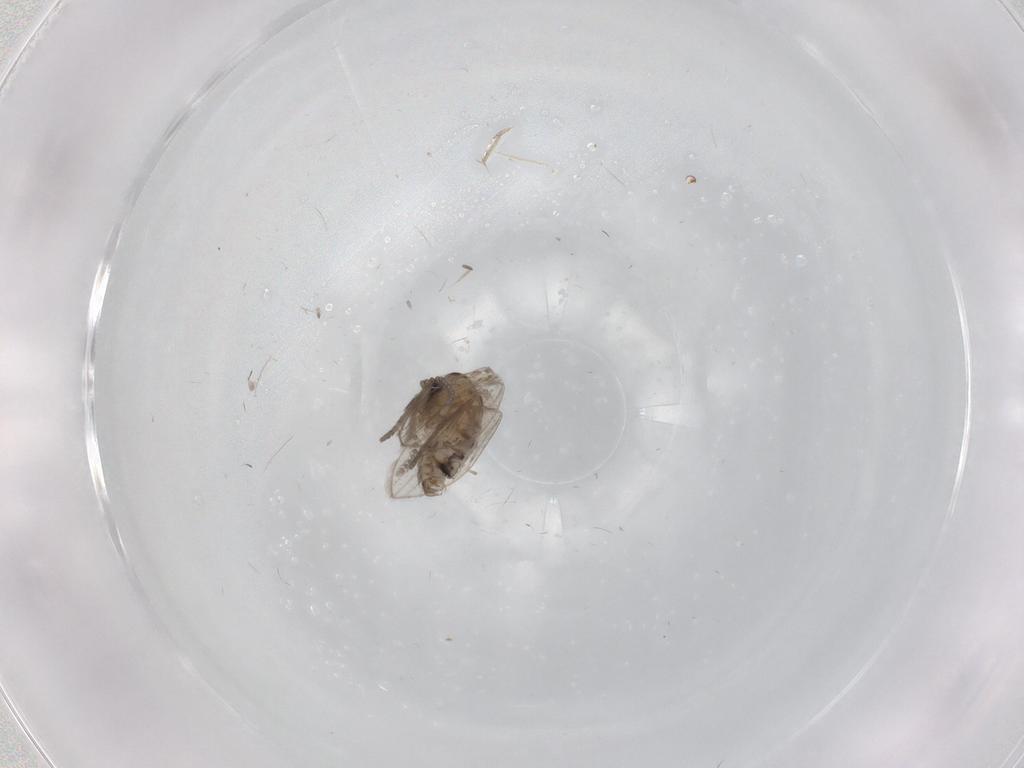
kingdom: Animalia
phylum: Arthropoda
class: Insecta
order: Diptera
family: Psychodidae
